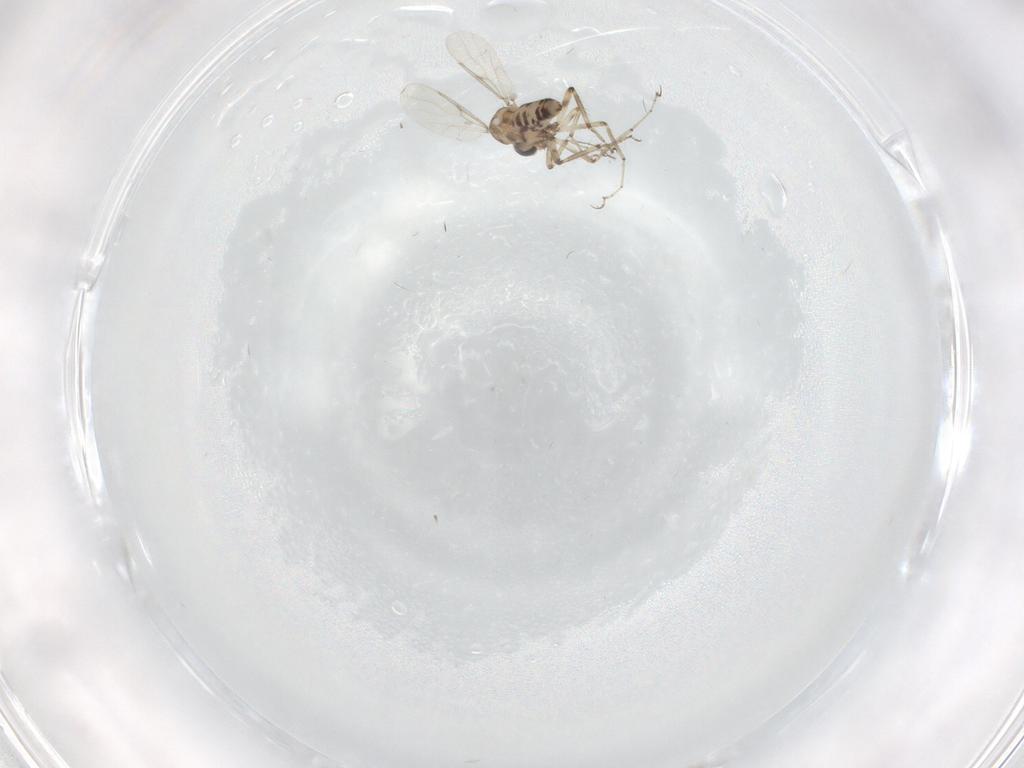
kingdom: Animalia
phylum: Arthropoda
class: Insecta
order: Diptera
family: Ceratopogonidae
